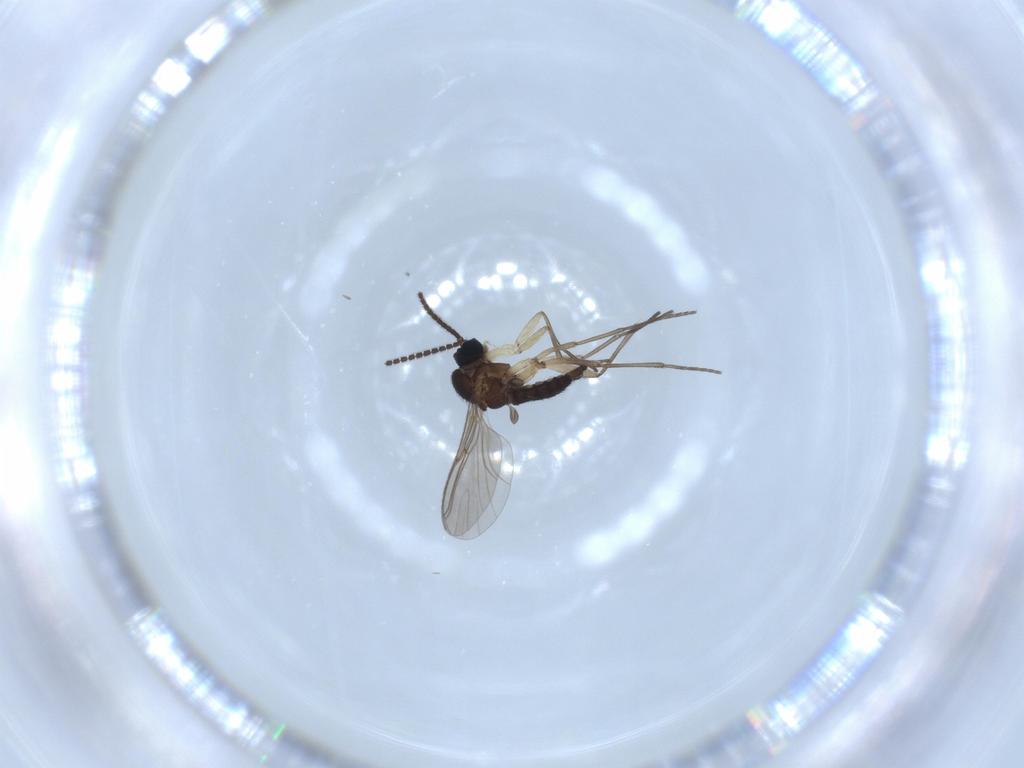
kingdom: Animalia
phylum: Arthropoda
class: Insecta
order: Diptera
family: Sciaridae
